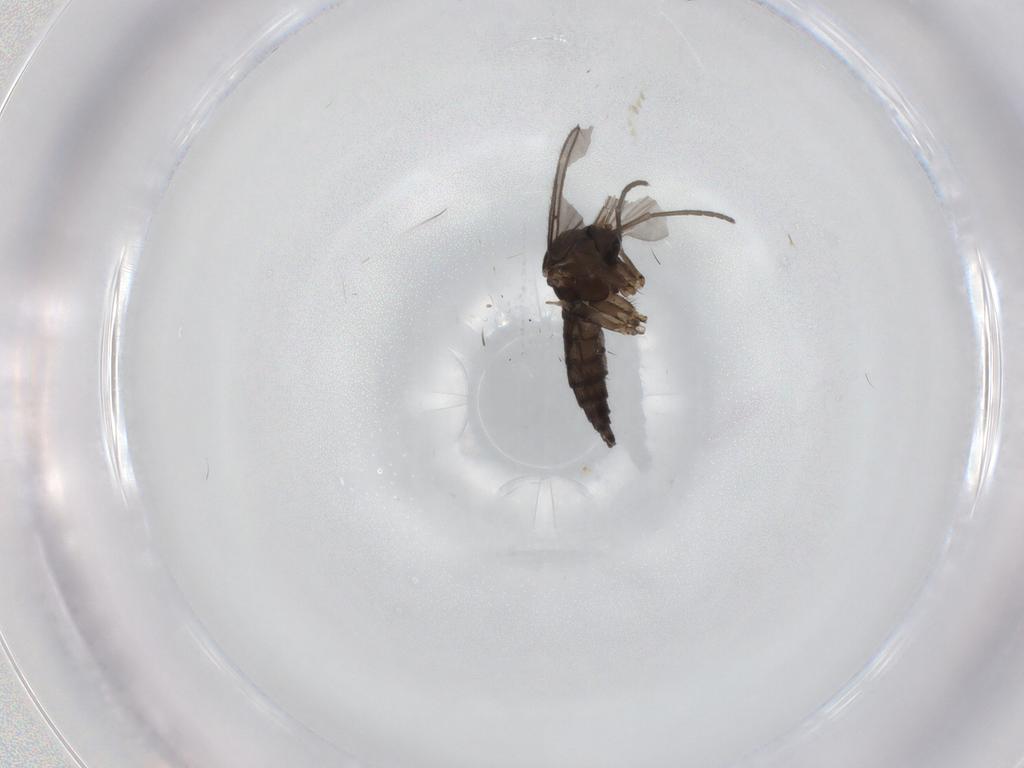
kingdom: Animalia
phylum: Arthropoda
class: Insecta
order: Diptera
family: Sciaridae
